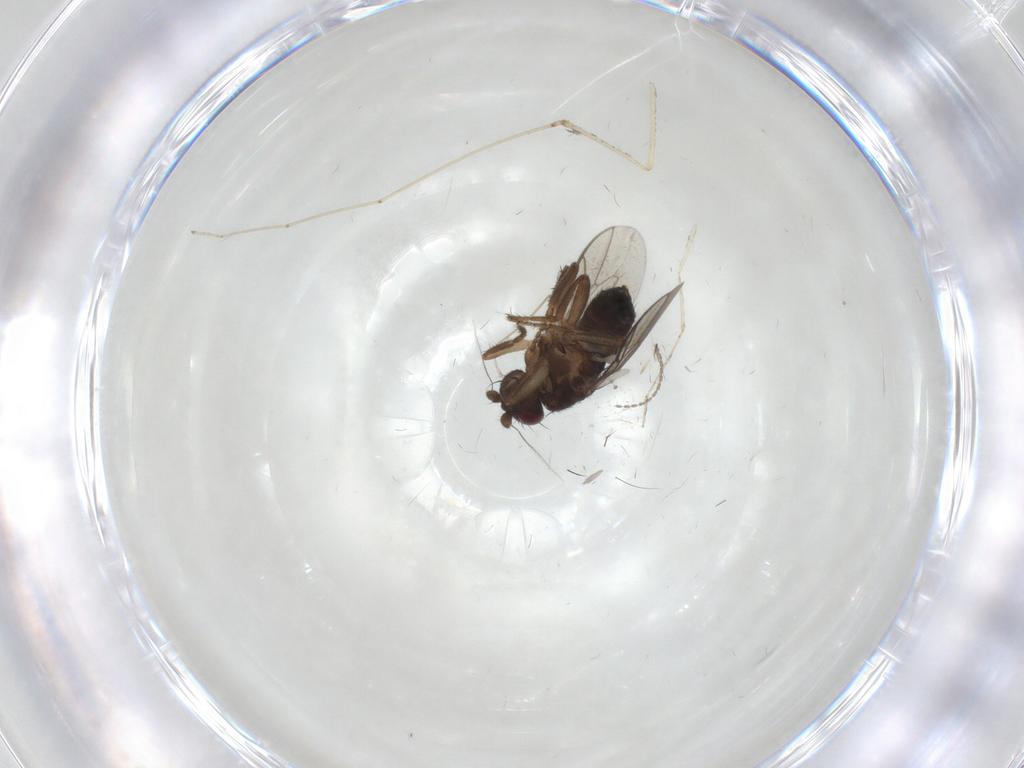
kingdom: Animalia
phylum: Arthropoda
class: Insecta
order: Diptera
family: Sphaeroceridae
